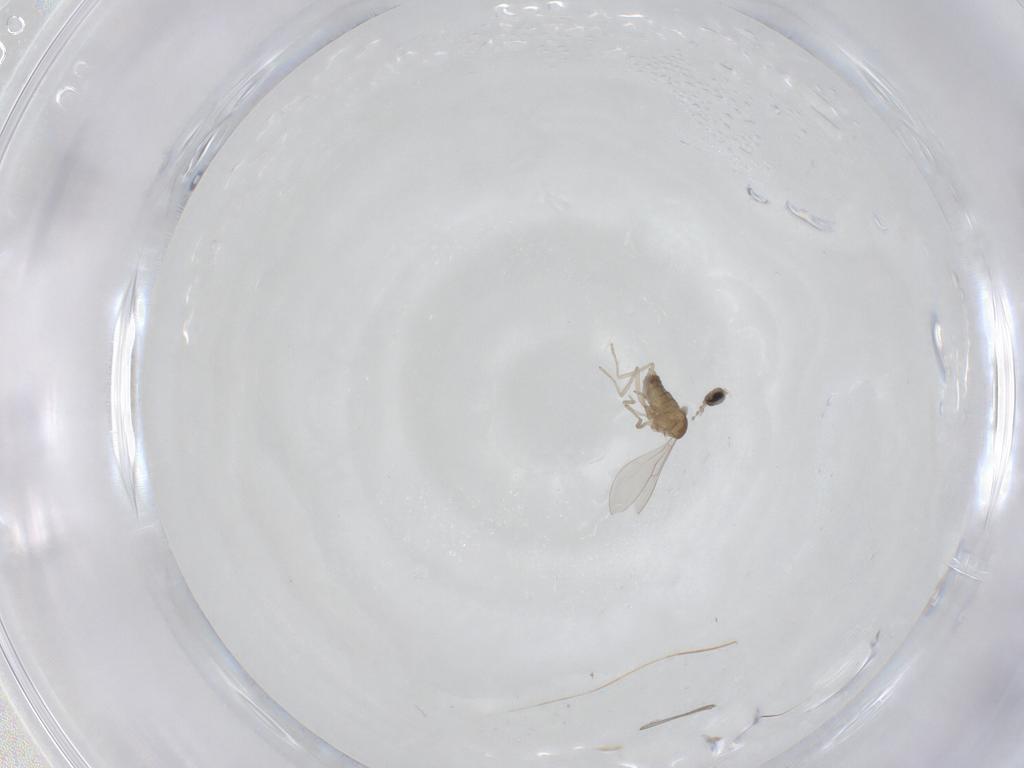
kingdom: Animalia
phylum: Arthropoda
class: Insecta
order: Diptera
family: Cecidomyiidae
